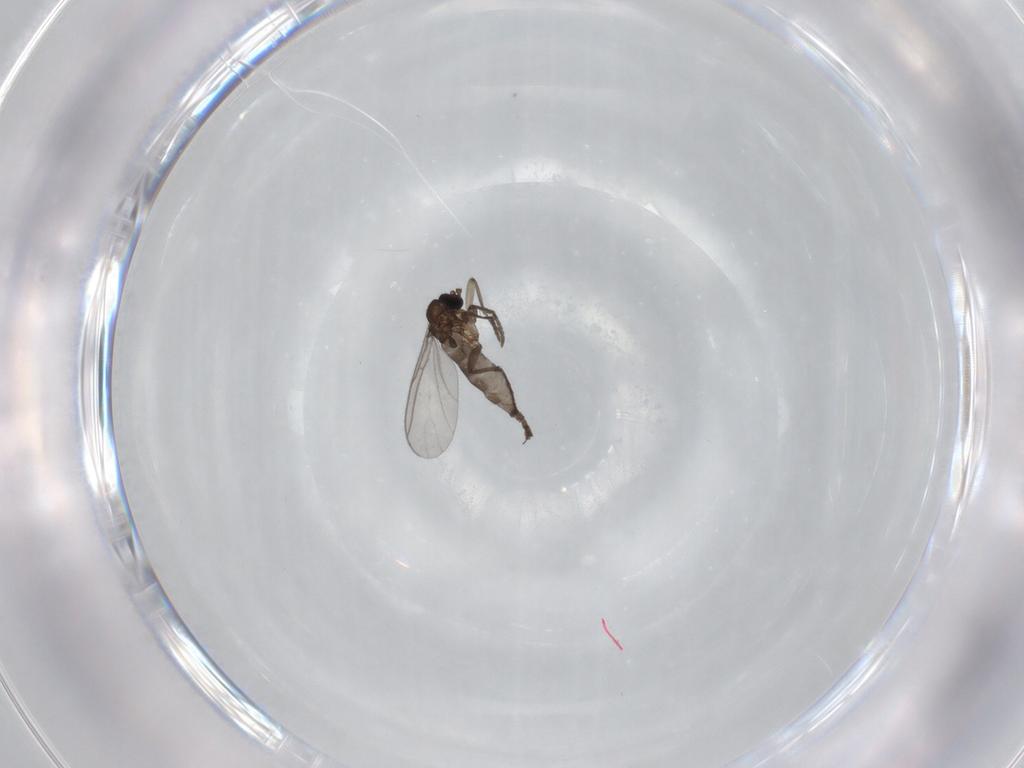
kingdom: Animalia
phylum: Arthropoda
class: Insecta
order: Diptera
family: Sciaridae
